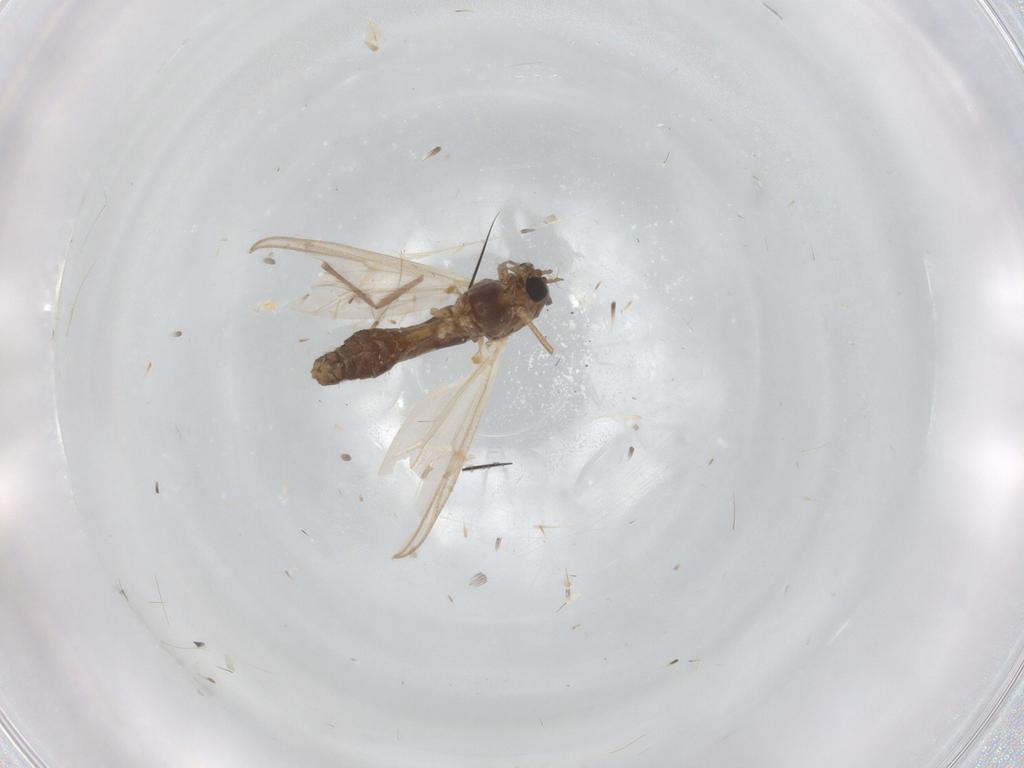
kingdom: Animalia
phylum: Arthropoda
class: Insecta
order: Diptera
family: Chironomidae
